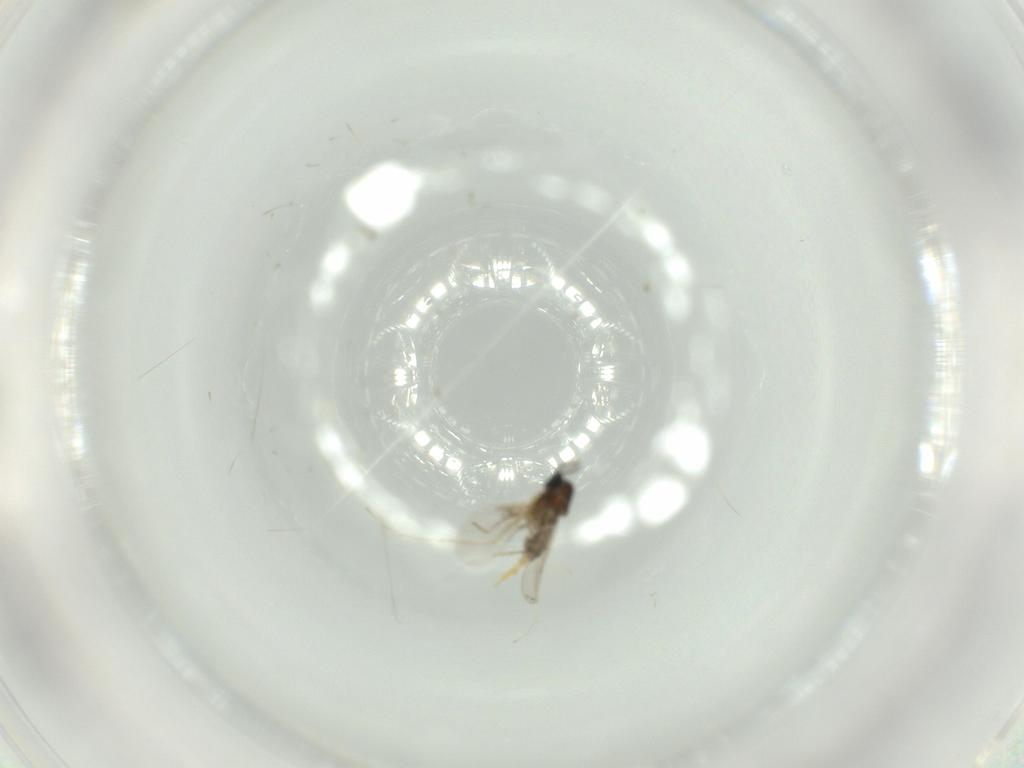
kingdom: Animalia
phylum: Arthropoda
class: Insecta
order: Diptera
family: Cecidomyiidae
